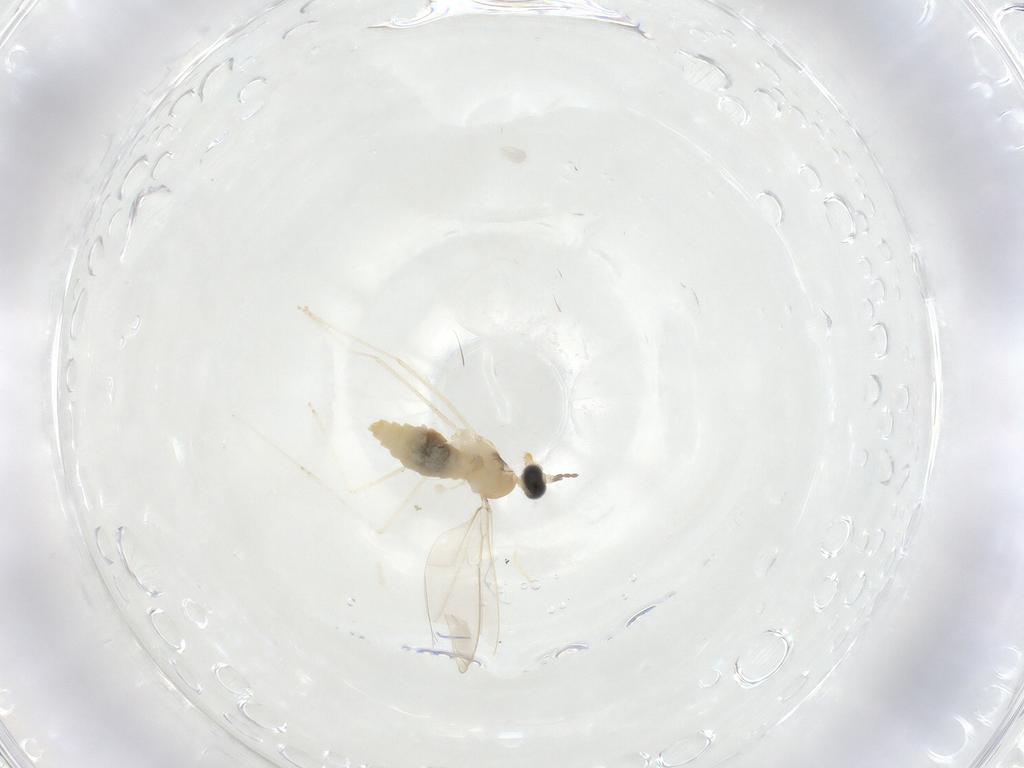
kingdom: Animalia
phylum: Arthropoda
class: Insecta
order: Diptera
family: Cecidomyiidae
